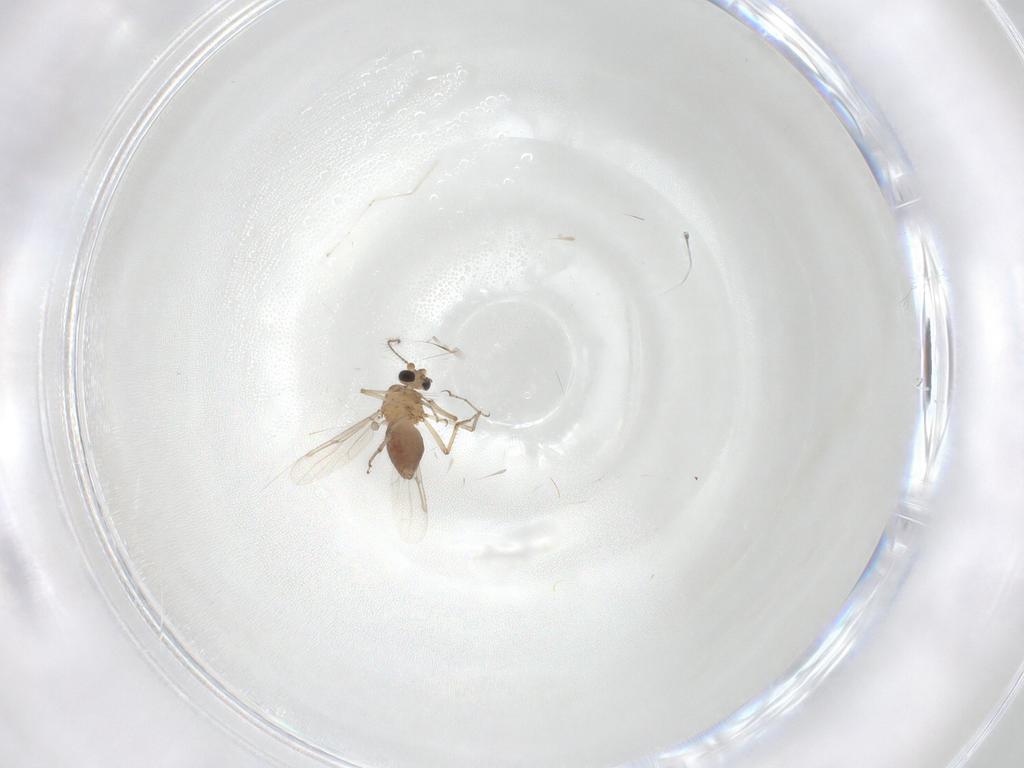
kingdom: Animalia
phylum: Arthropoda
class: Insecta
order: Diptera
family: Ceratopogonidae
